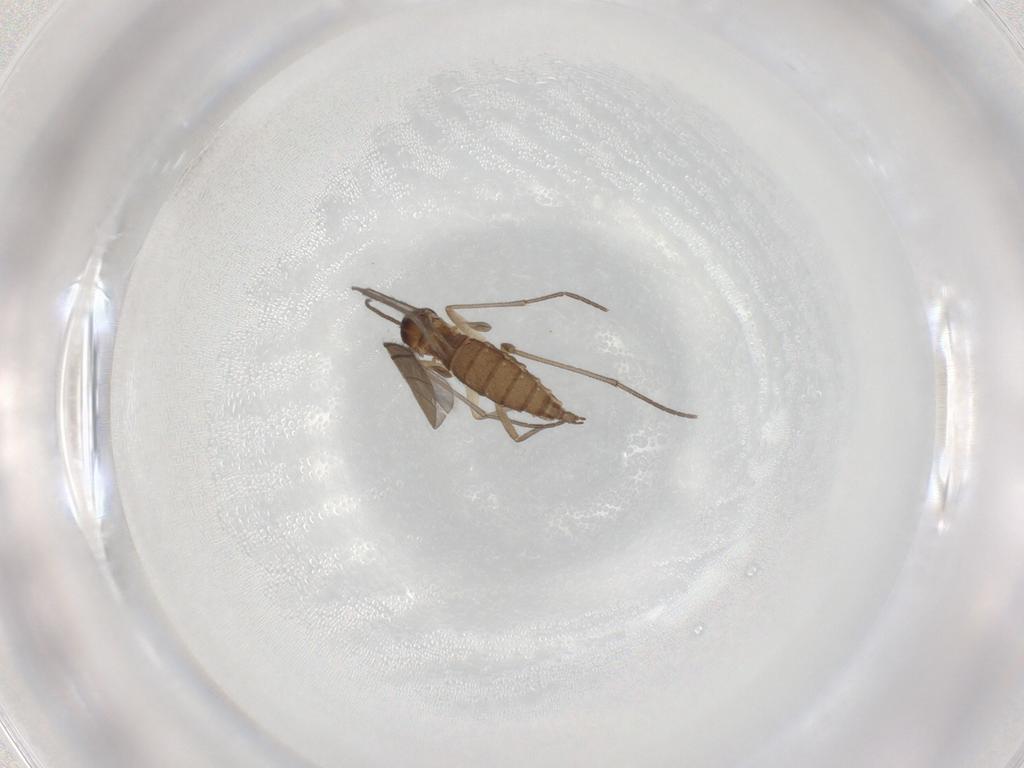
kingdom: Animalia
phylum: Arthropoda
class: Insecta
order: Diptera
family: Sciaridae
